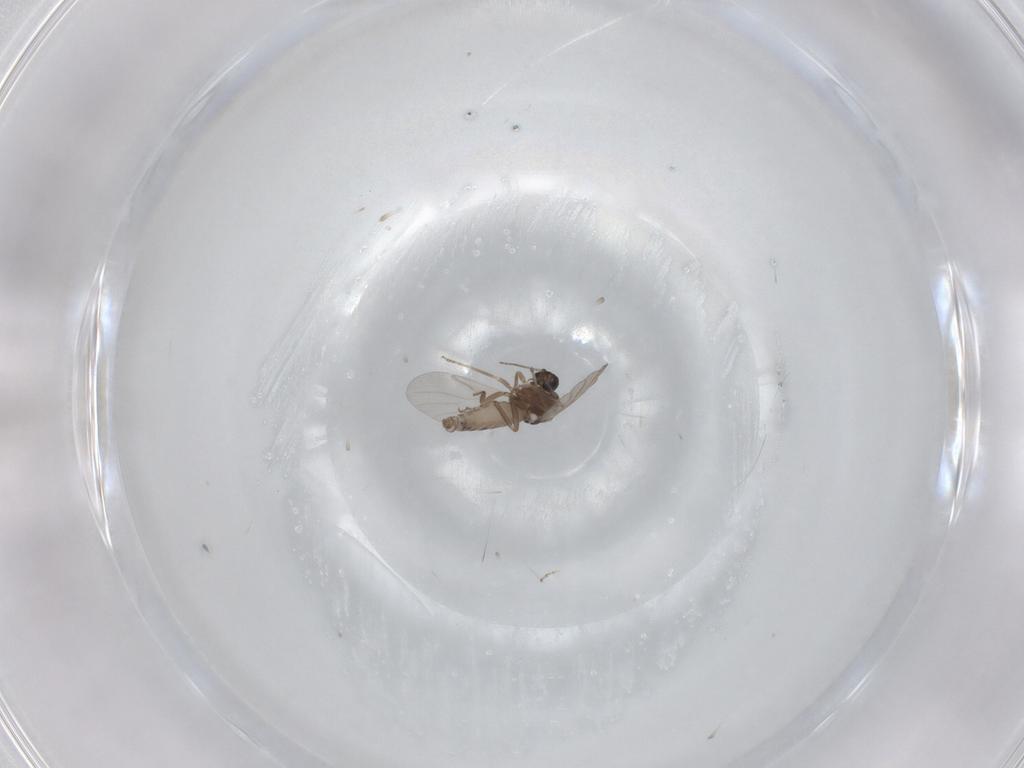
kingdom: Animalia
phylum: Arthropoda
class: Insecta
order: Diptera
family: Ceratopogonidae
